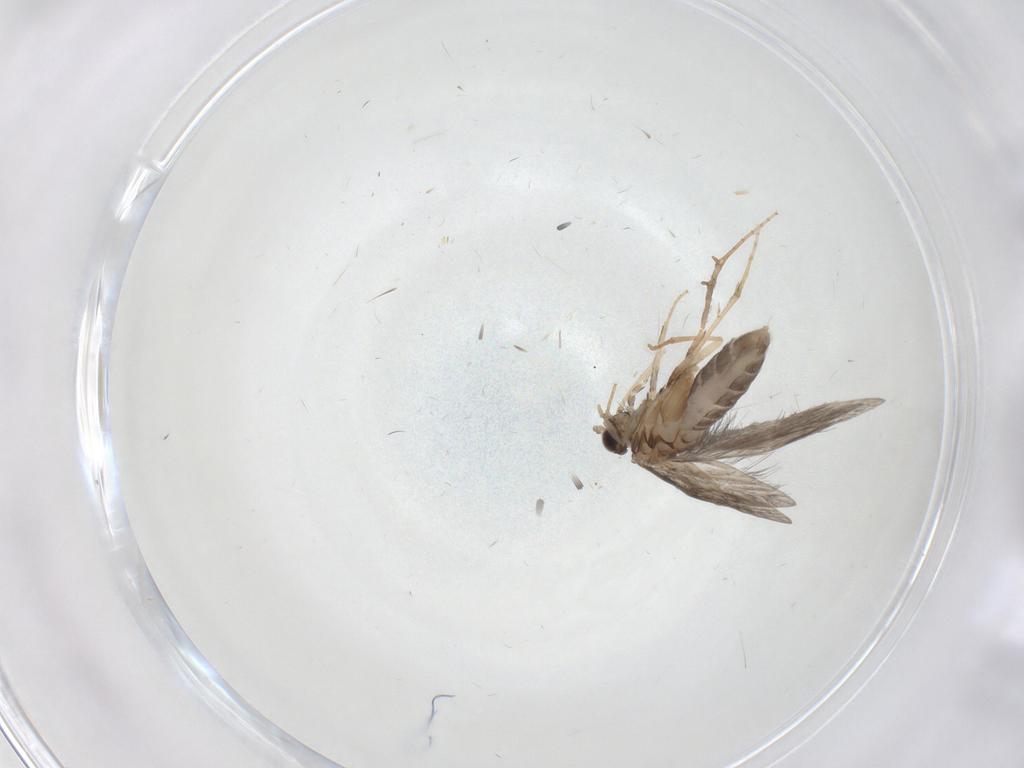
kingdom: Animalia
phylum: Arthropoda
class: Insecta
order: Trichoptera
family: Hydroptilidae
